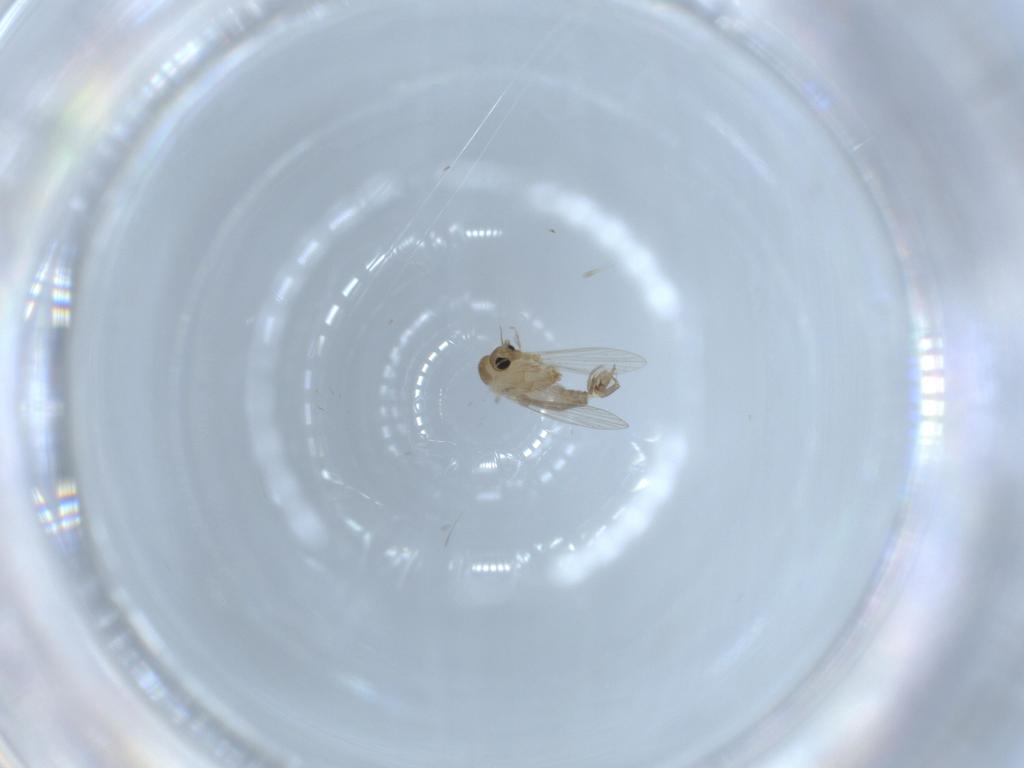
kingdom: Animalia
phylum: Arthropoda
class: Insecta
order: Diptera
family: Psychodidae
